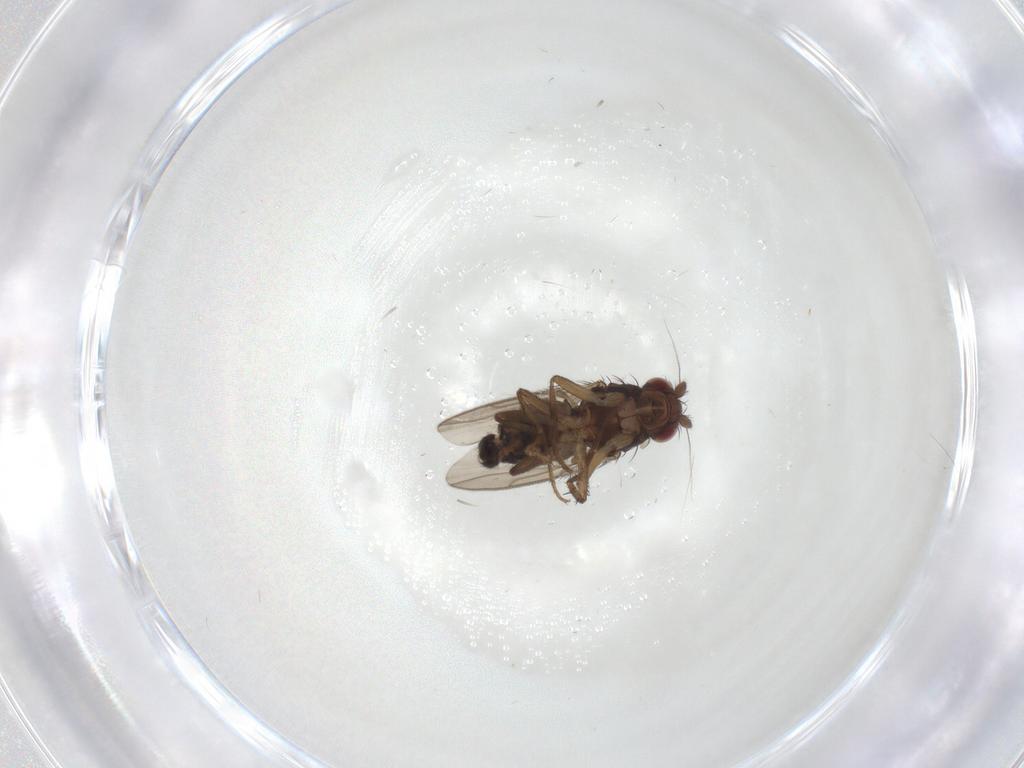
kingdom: Animalia
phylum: Arthropoda
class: Insecta
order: Diptera
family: Sphaeroceridae
